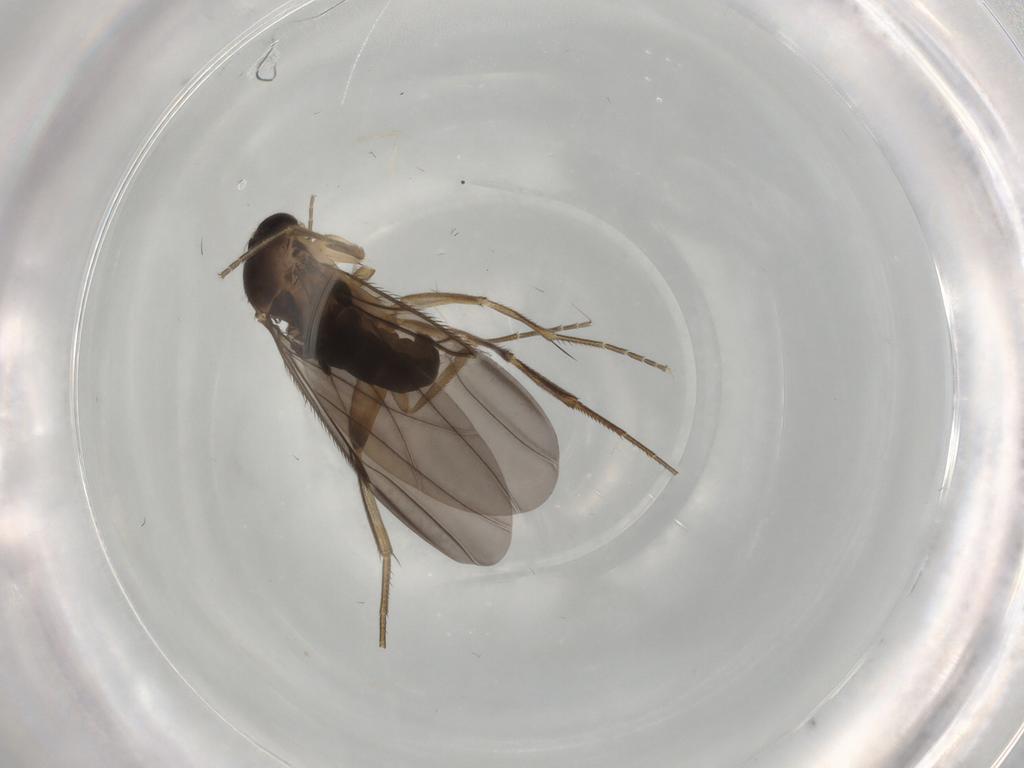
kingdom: Animalia
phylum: Arthropoda
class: Insecta
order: Diptera
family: Phoridae
